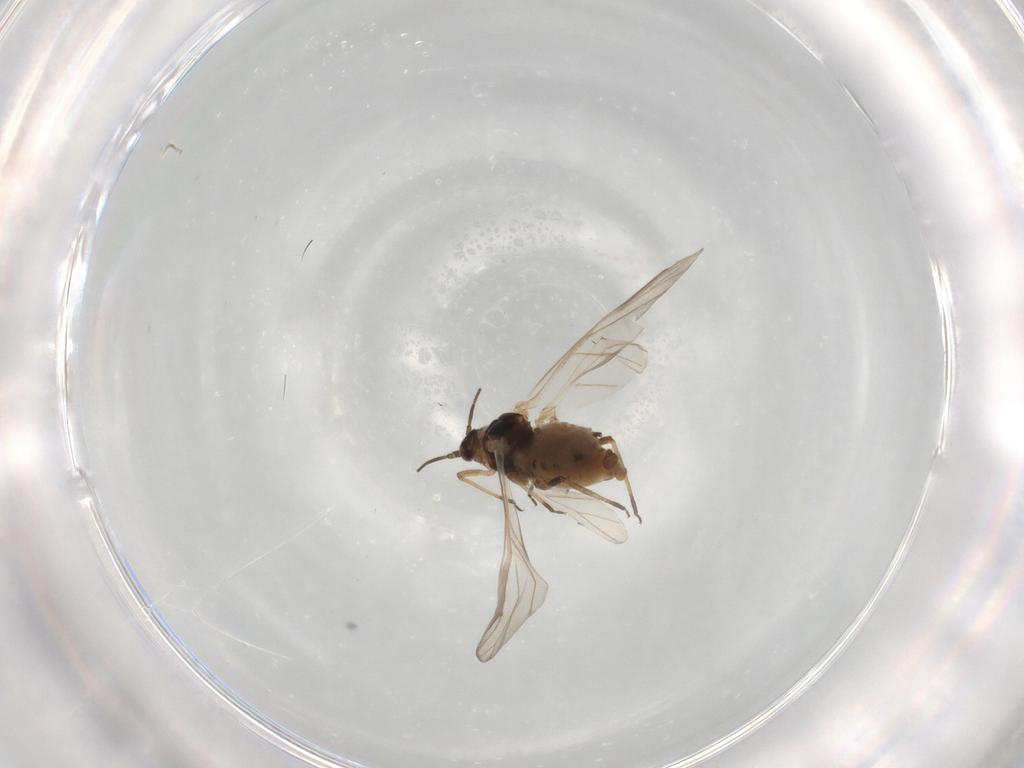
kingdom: Animalia
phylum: Arthropoda
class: Insecta
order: Hemiptera
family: Aphididae
